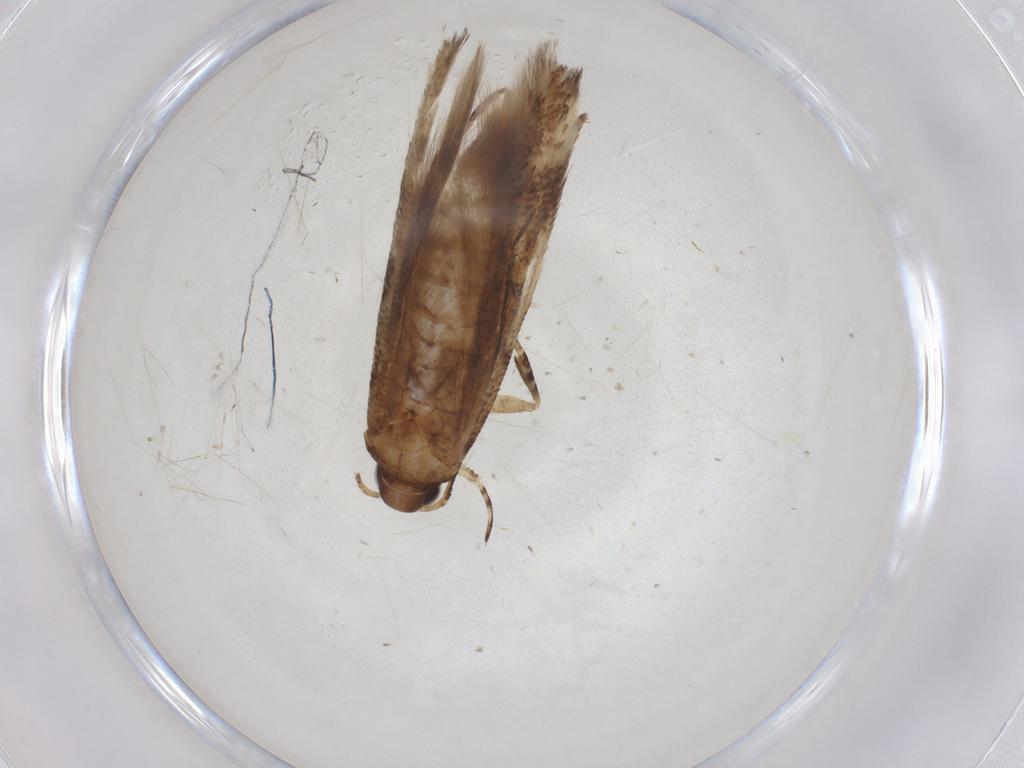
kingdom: Animalia
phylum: Arthropoda
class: Insecta
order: Lepidoptera
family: Gelechiidae
